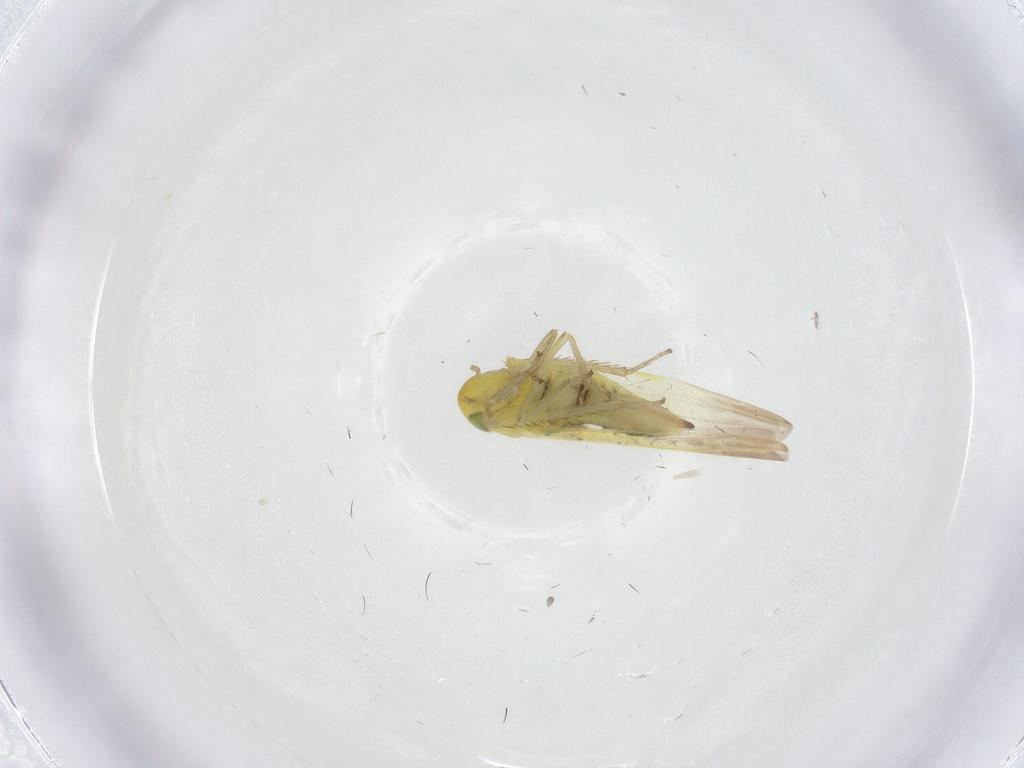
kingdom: Animalia
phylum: Arthropoda
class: Insecta
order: Hemiptera
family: Cicadellidae
